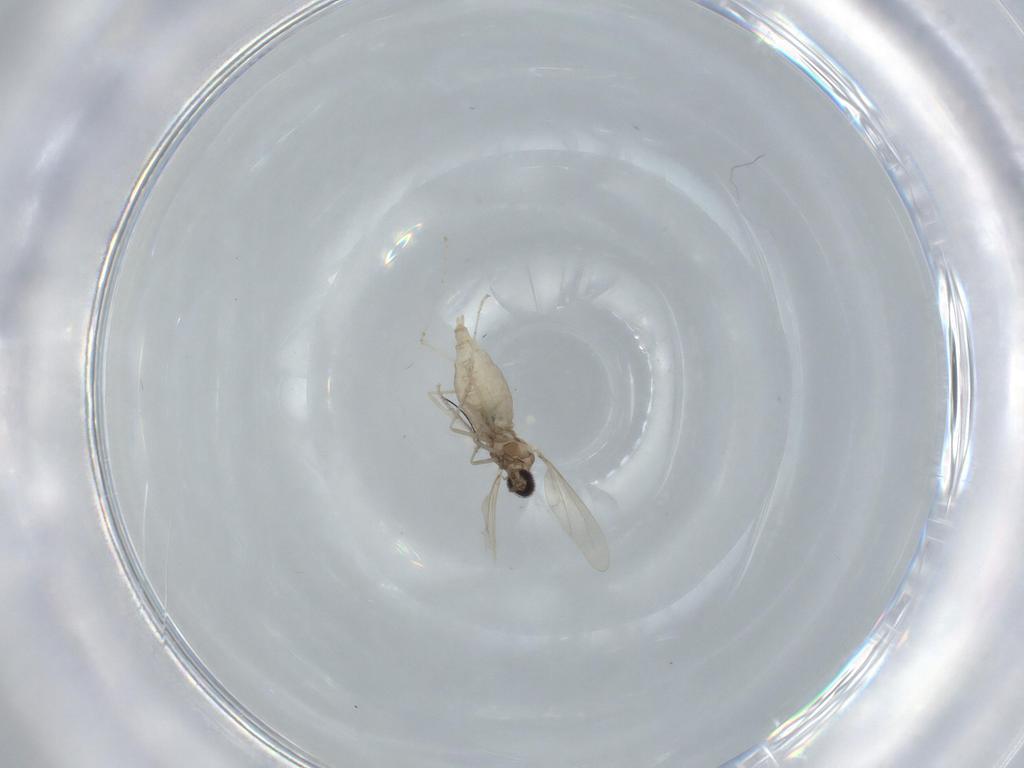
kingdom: Animalia
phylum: Arthropoda
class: Insecta
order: Diptera
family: Cecidomyiidae
